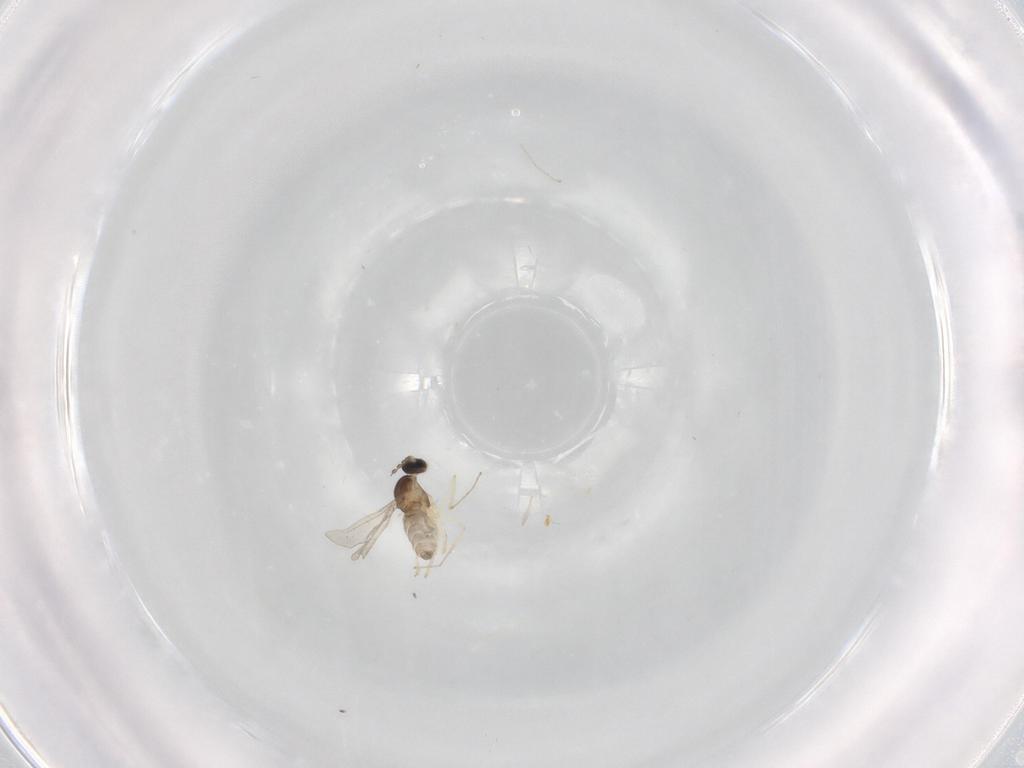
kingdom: Animalia
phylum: Arthropoda
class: Insecta
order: Diptera
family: Cecidomyiidae
